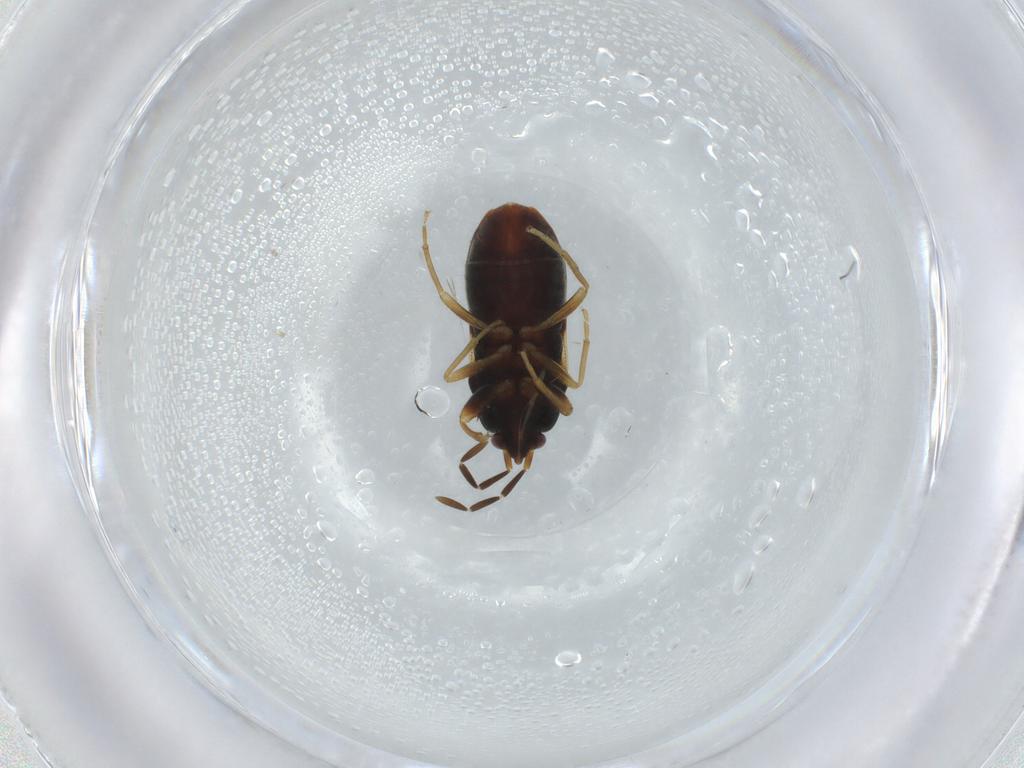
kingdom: Animalia
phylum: Arthropoda
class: Insecta
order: Hemiptera
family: Rhyparochromidae
